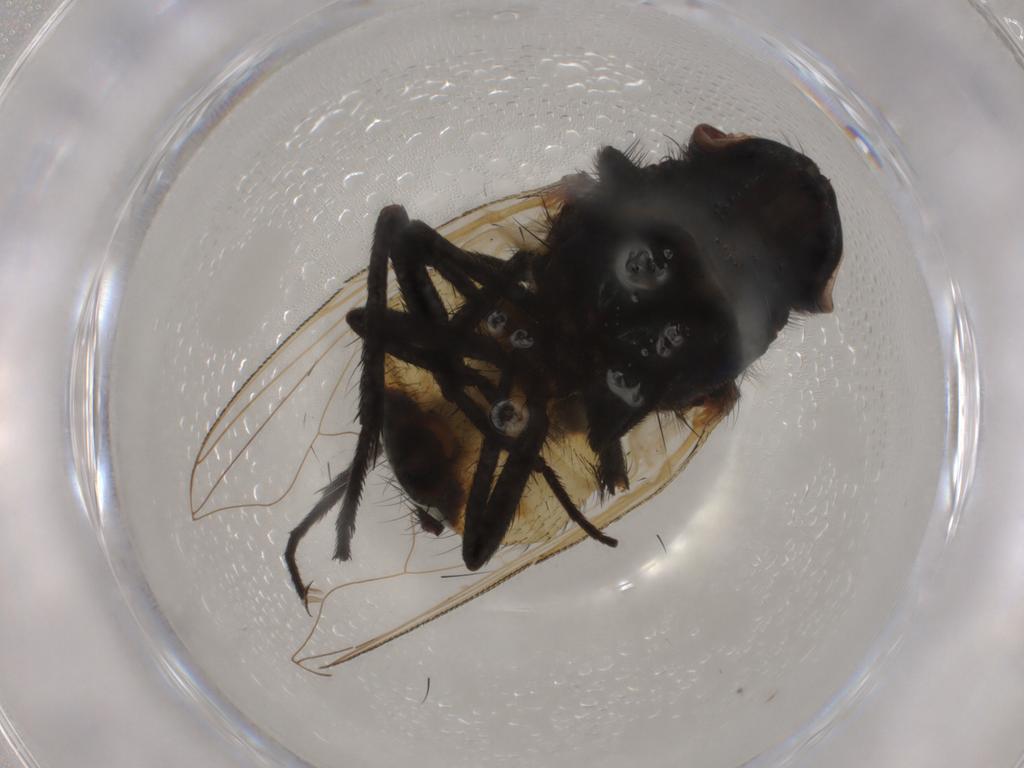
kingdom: Animalia
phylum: Arthropoda
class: Insecta
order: Diptera
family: Muscidae
